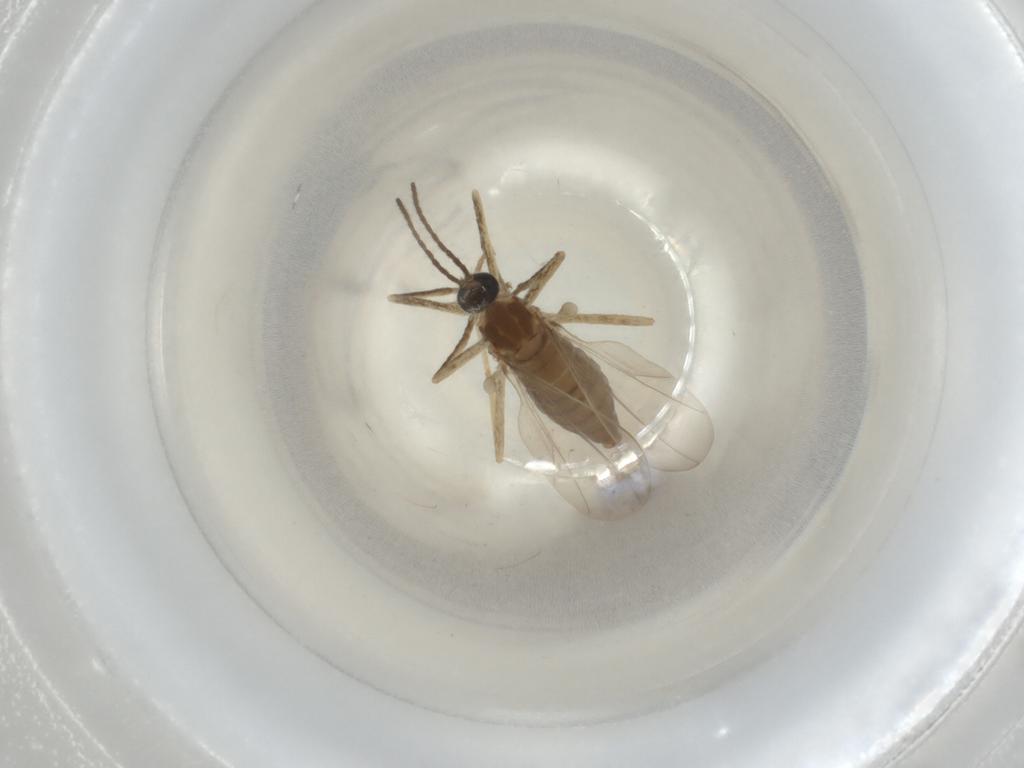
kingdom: Animalia
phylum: Arthropoda
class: Insecta
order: Diptera
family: Cecidomyiidae
